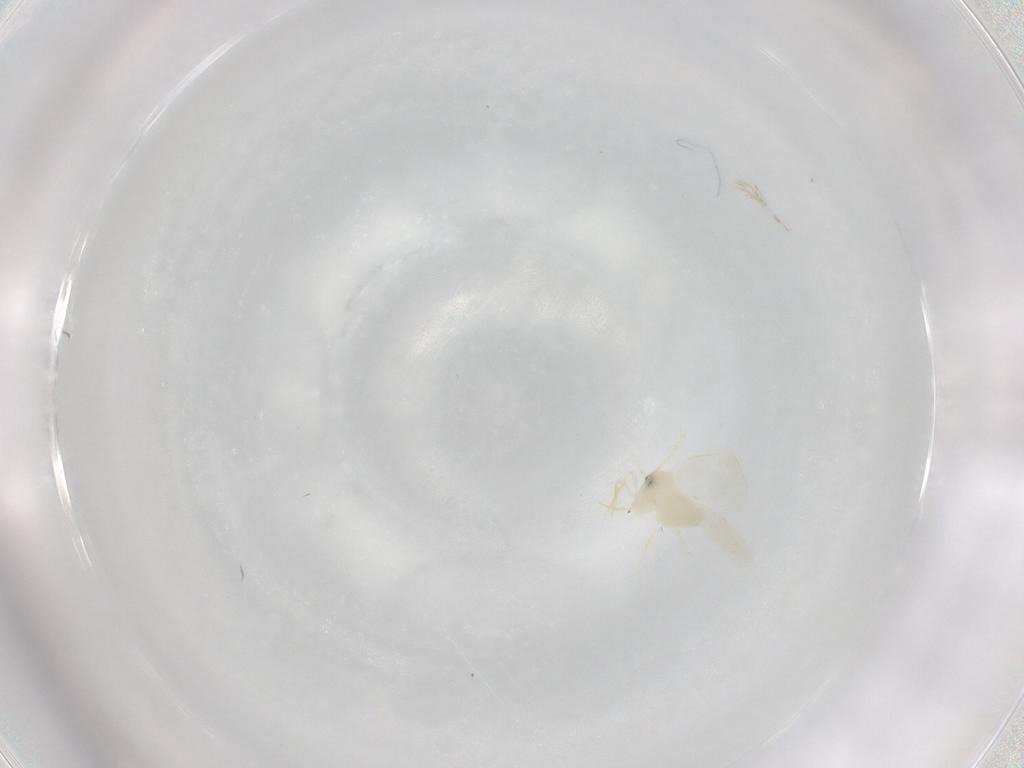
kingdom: Animalia
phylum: Arthropoda
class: Insecta
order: Hemiptera
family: Aleyrodidae
